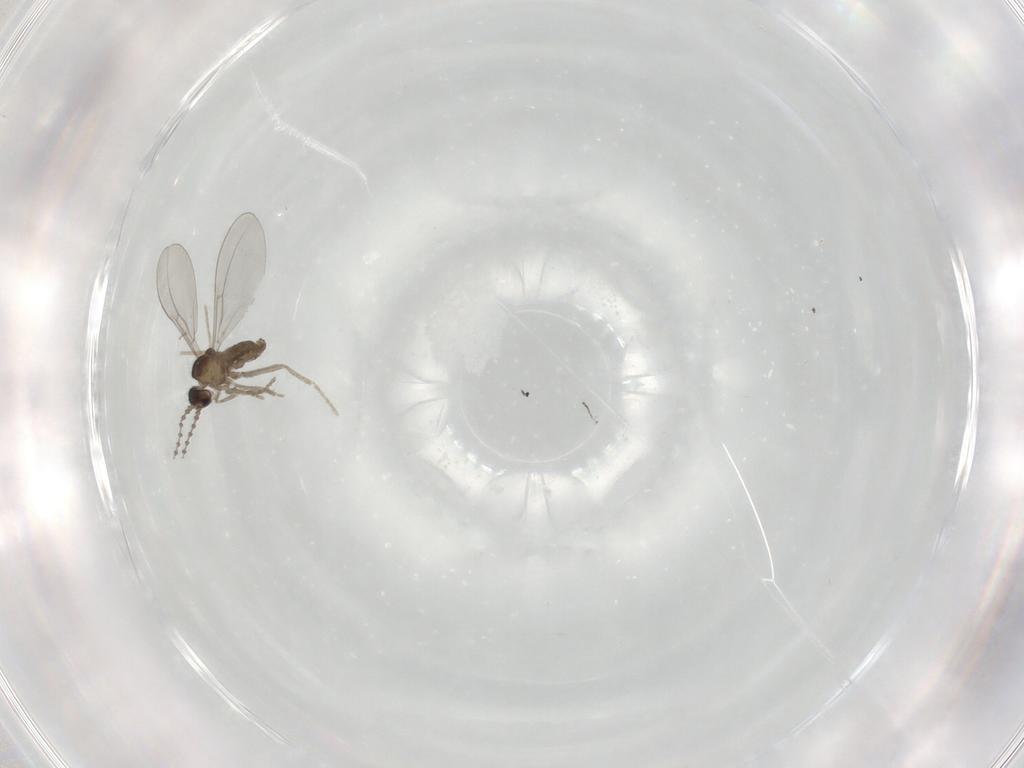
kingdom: Animalia
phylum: Arthropoda
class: Insecta
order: Diptera
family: Cecidomyiidae
